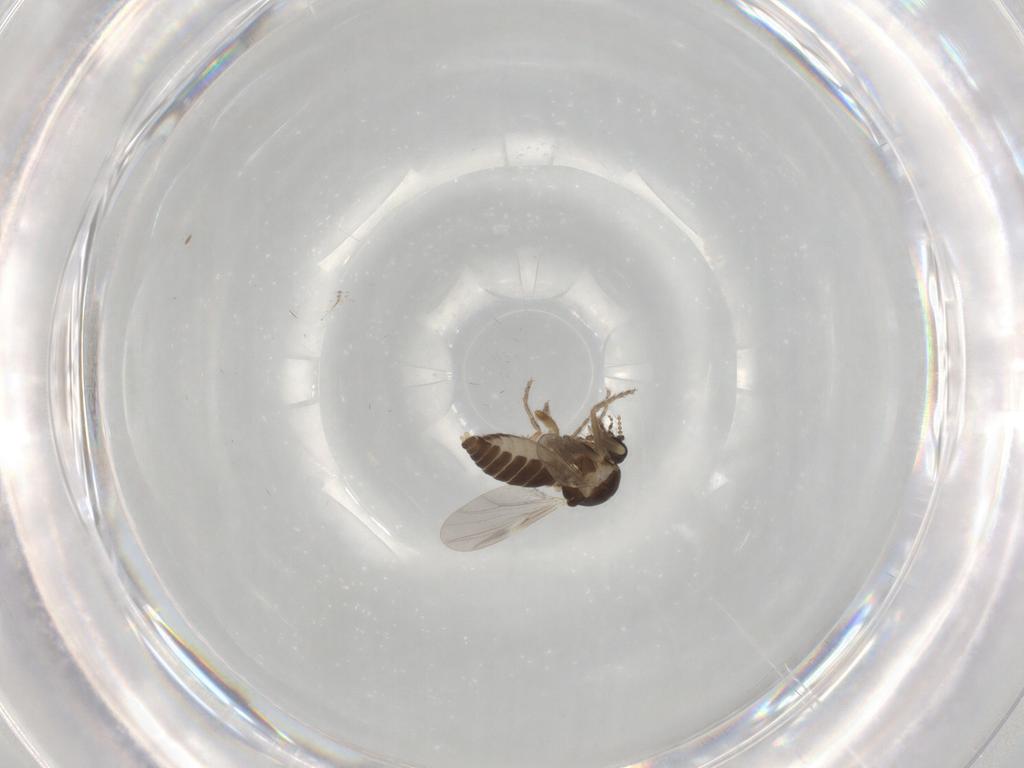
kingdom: Animalia
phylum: Arthropoda
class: Insecta
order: Diptera
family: Ceratopogonidae
